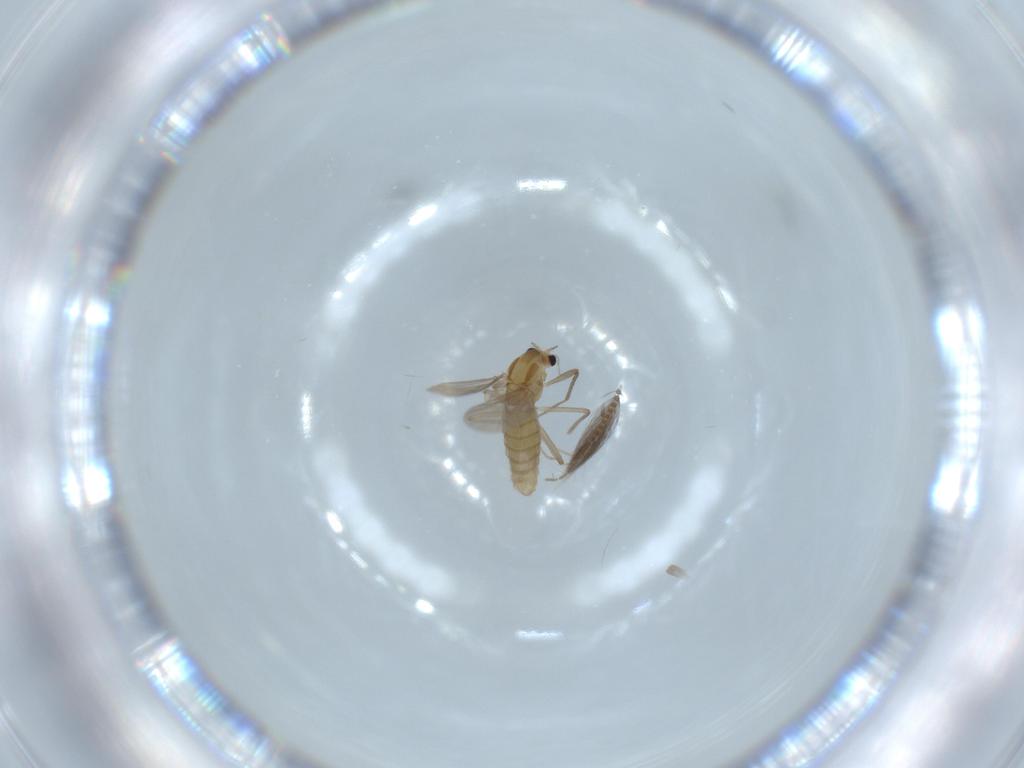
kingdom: Animalia
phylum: Arthropoda
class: Insecta
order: Diptera
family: Chironomidae
